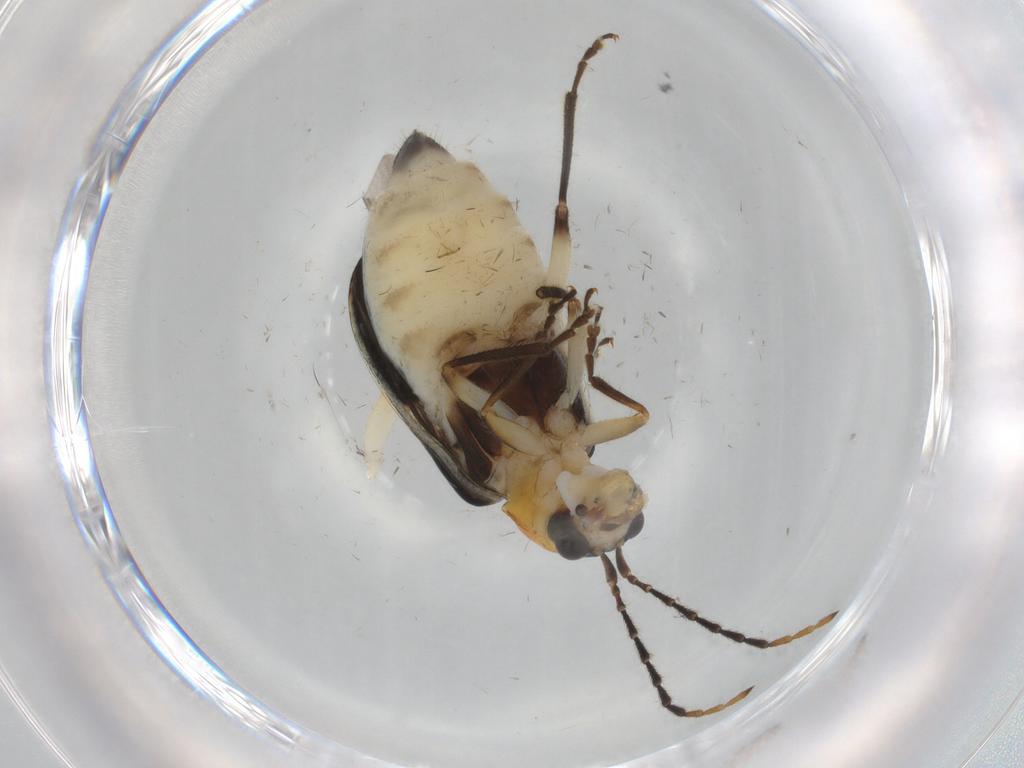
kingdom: Animalia
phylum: Arthropoda
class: Insecta
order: Coleoptera
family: Chrysomelidae
